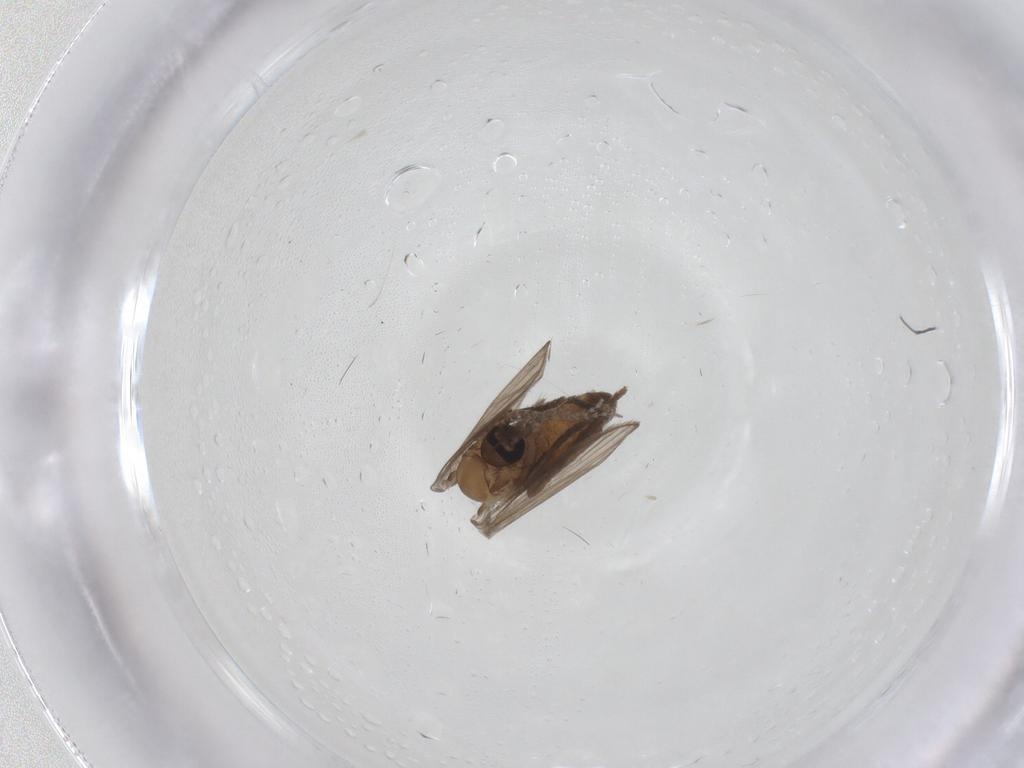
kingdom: Animalia
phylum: Arthropoda
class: Insecta
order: Diptera
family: Psychodidae
